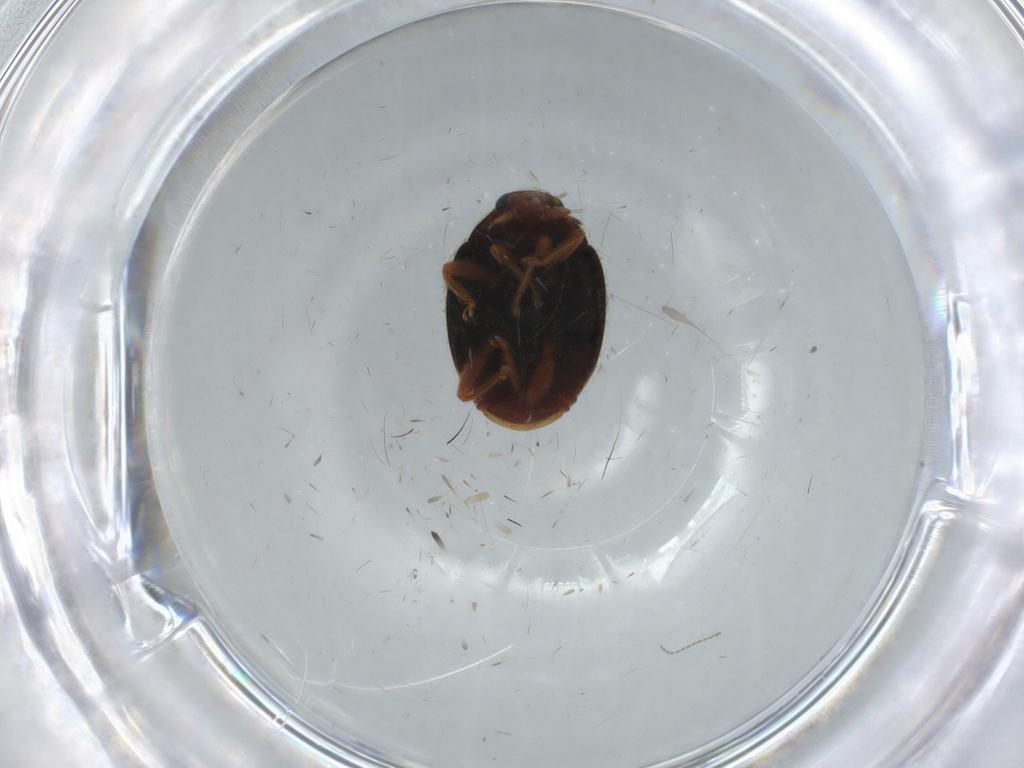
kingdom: Animalia
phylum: Arthropoda
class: Insecta
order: Coleoptera
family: Coccinellidae
